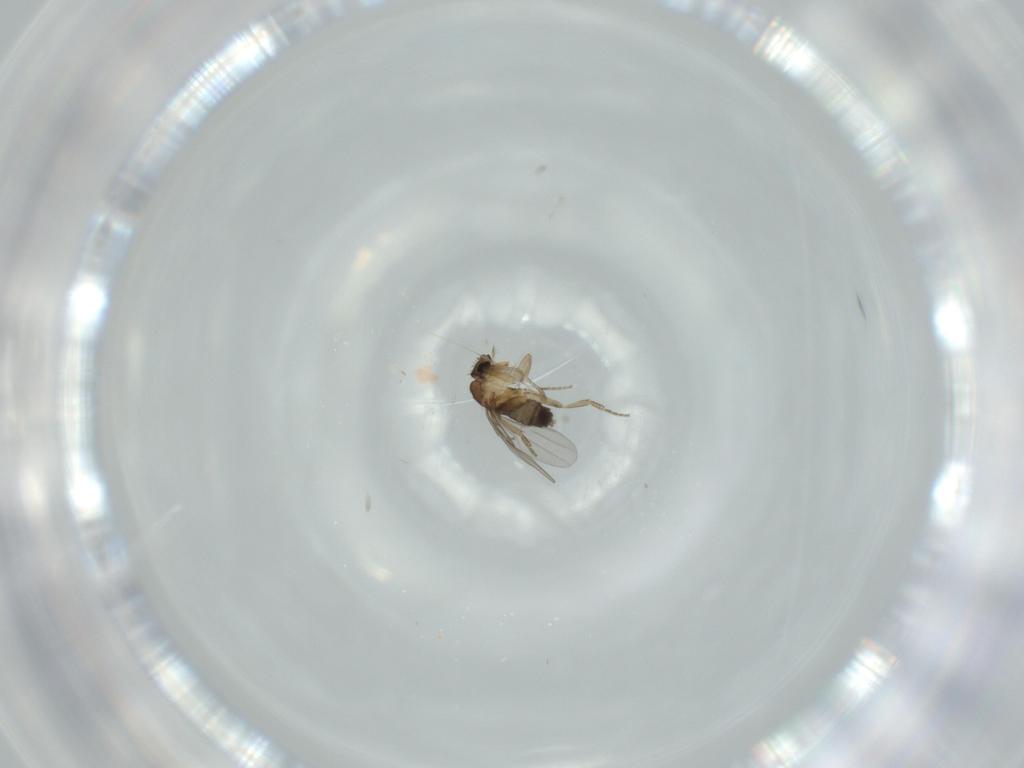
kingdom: Animalia
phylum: Arthropoda
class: Insecta
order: Diptera
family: Phoridae
